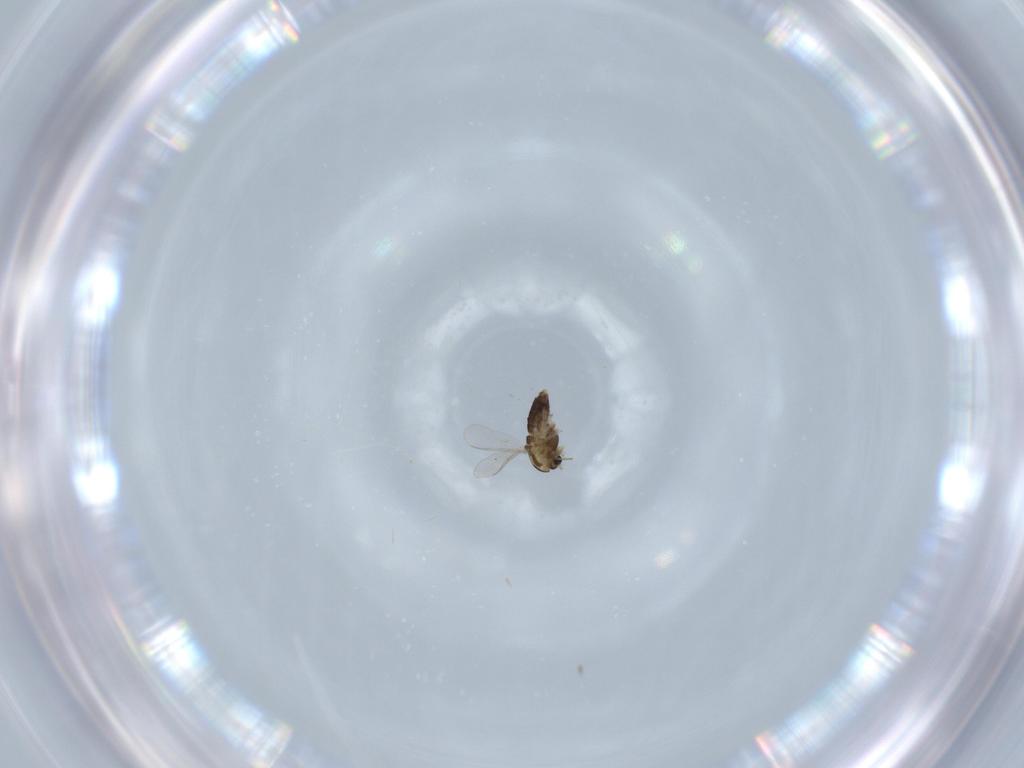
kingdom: Animalia
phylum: Arthropoda
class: Insecta
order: Diptera
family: Chironomidae
